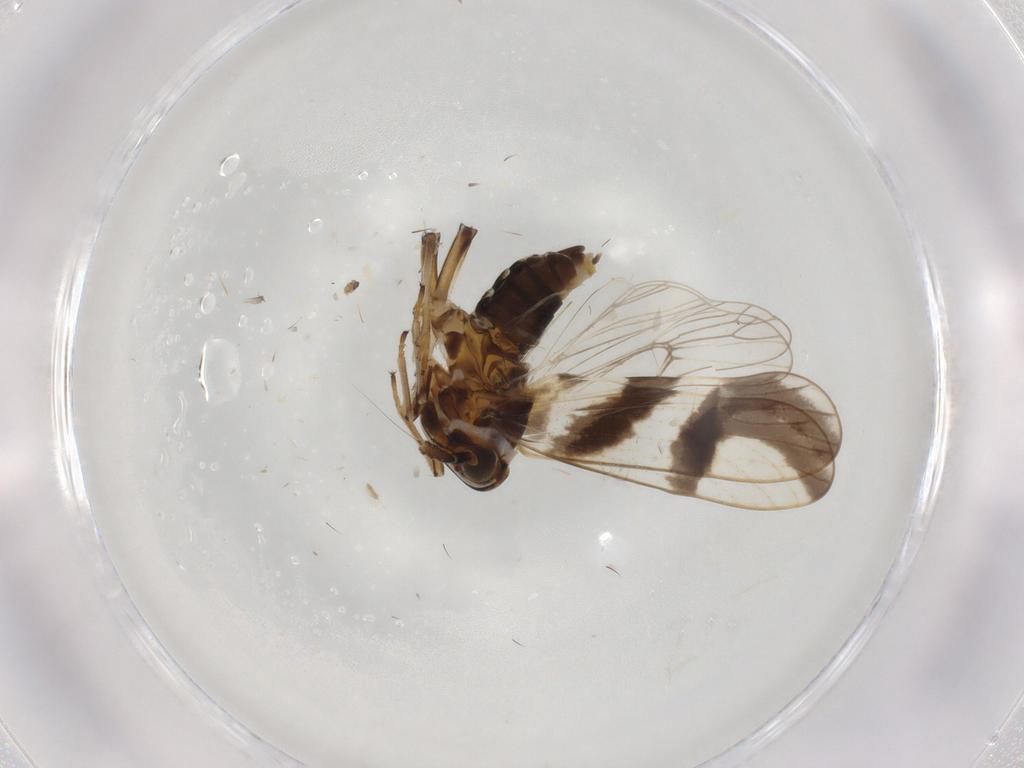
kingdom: Animalia
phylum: Arthropoda
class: Insecta
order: Hemiptera
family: Delphacidae
